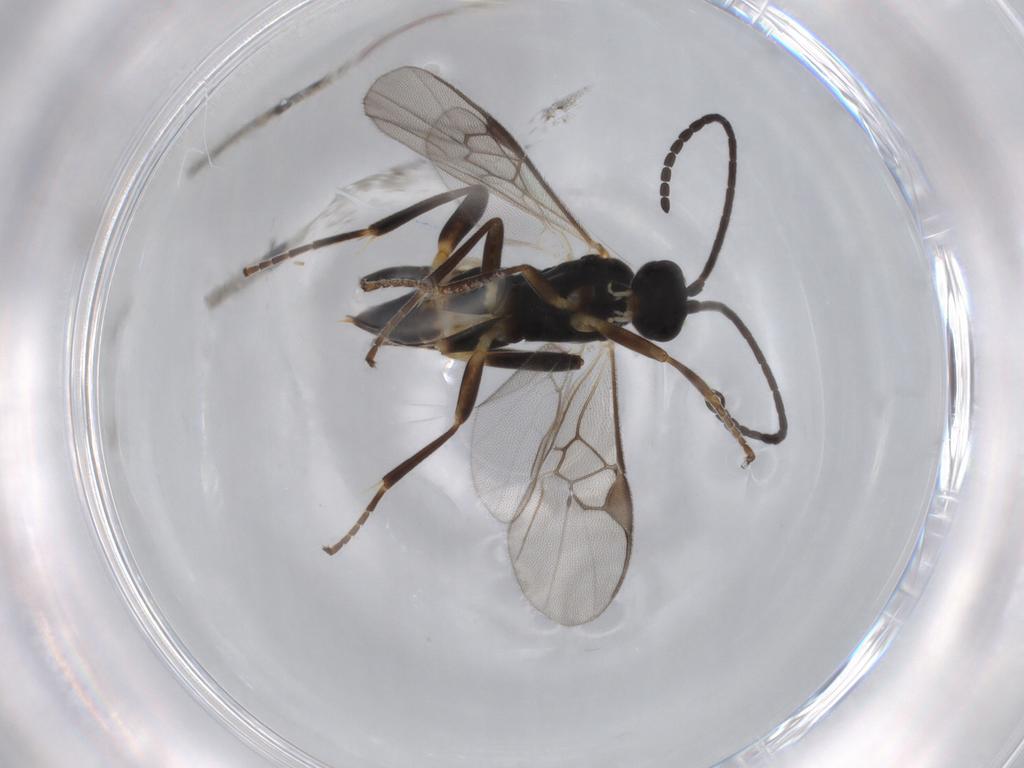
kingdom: Animalia
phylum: Arthropoda
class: Insecta
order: Hymenoptera
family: Braconidae
